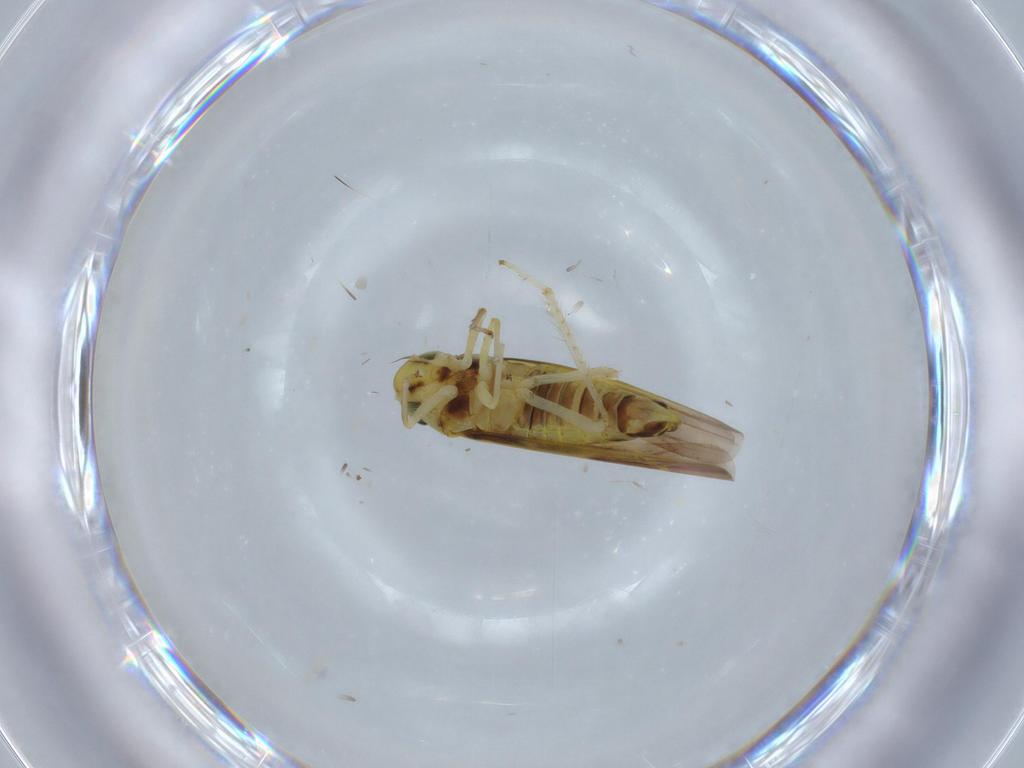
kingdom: Animalia
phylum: Arthropoda
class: Insecta
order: Hemiptera
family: Cicadellidae
